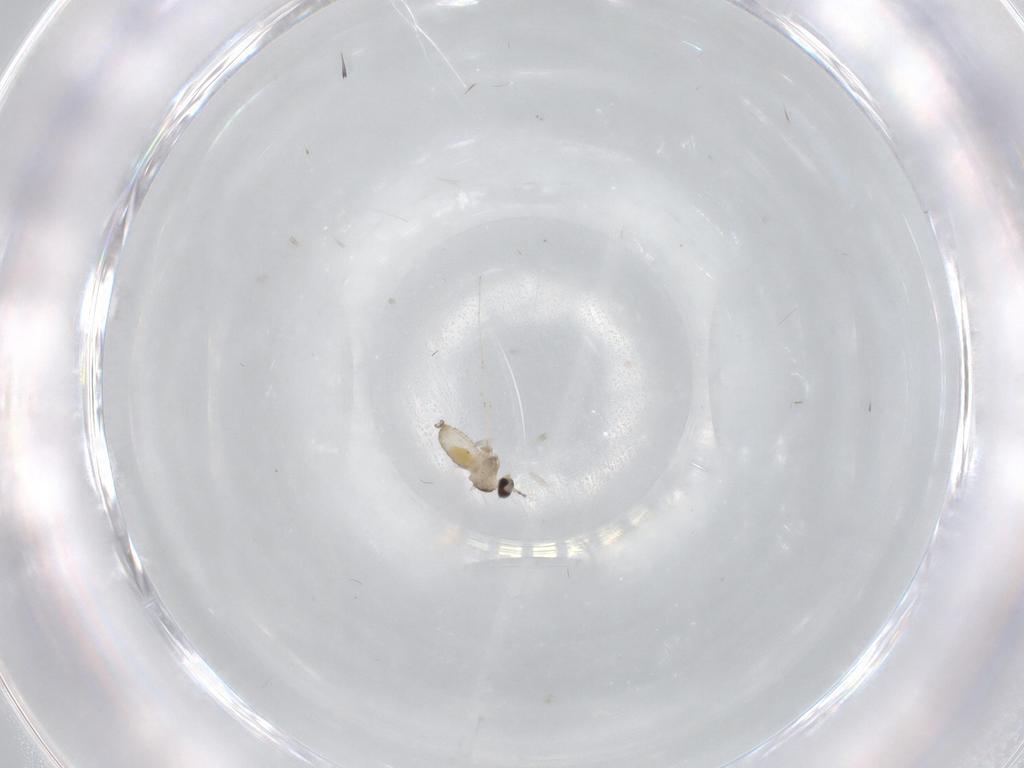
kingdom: Animalia
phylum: Arthropoda
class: Insecta
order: Diptera
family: Cecidomyiidae
